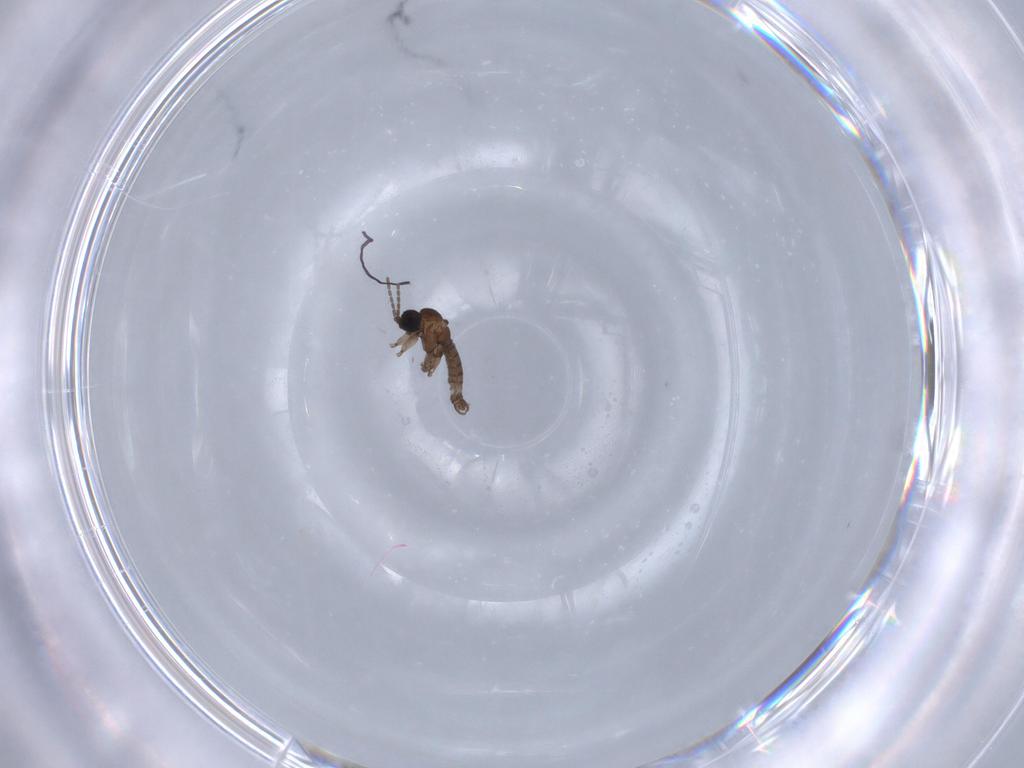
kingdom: Animalia
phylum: Arthropoda
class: Insecta
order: Diptera
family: Sciaridae
